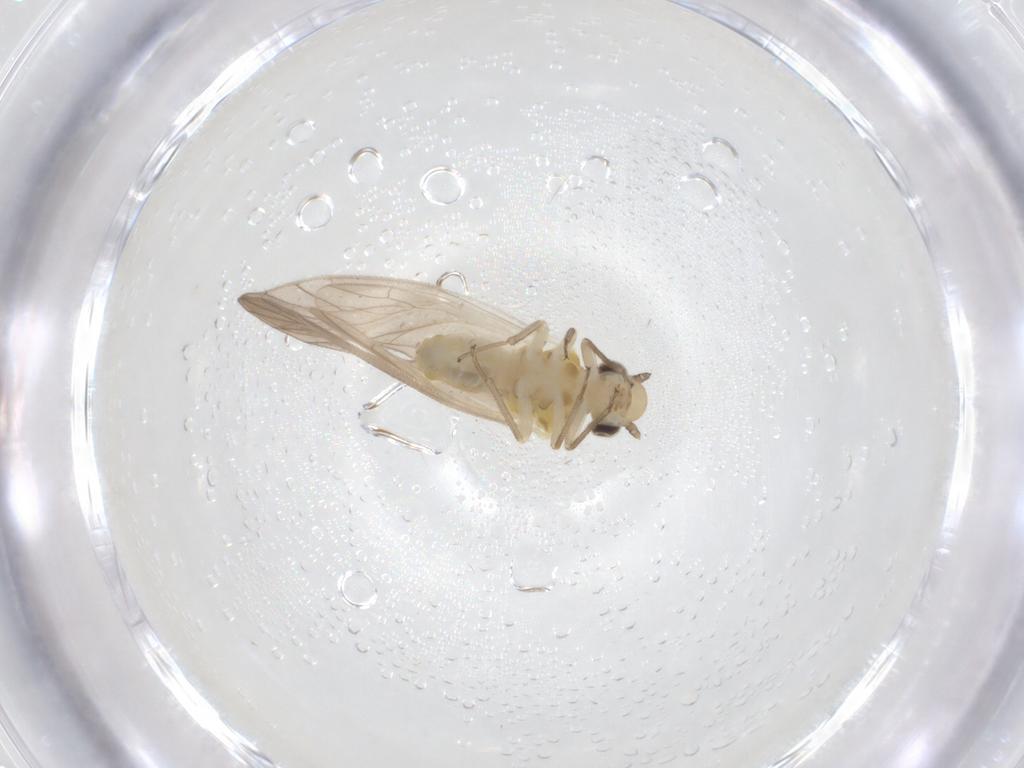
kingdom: Animalia
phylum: Arthropoda
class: Insecta
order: Psocodea
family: Caeciliusidae
